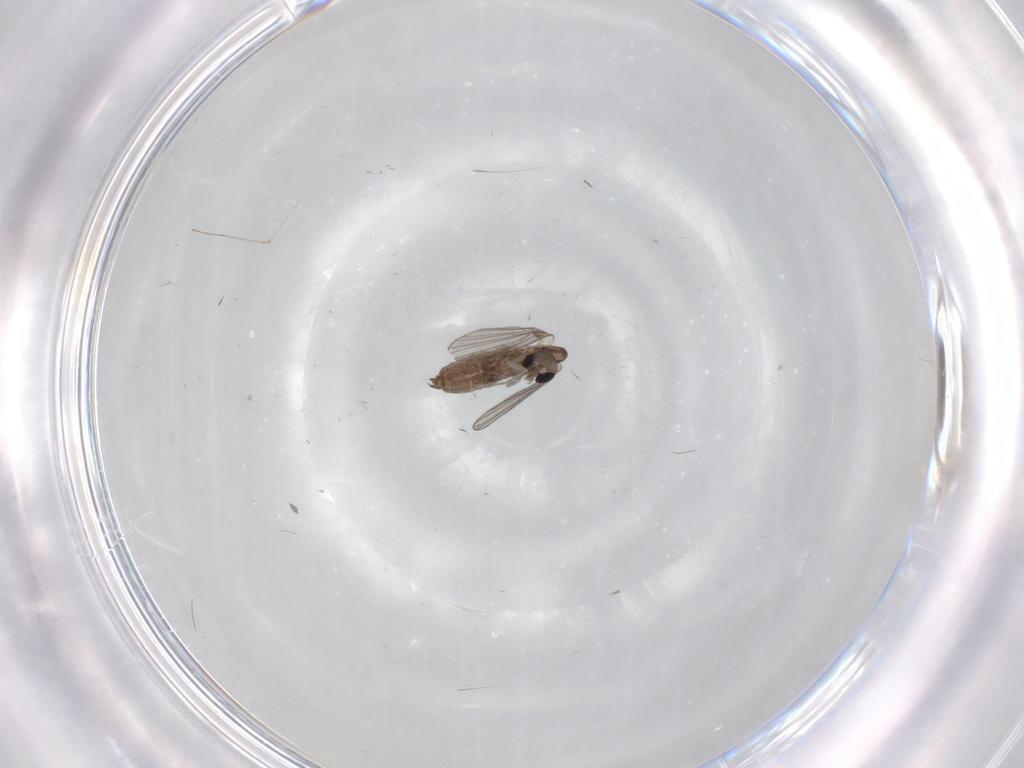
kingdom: Animalia
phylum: Arthropoda
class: Insecta
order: Diptera
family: Cecidomyiidae
